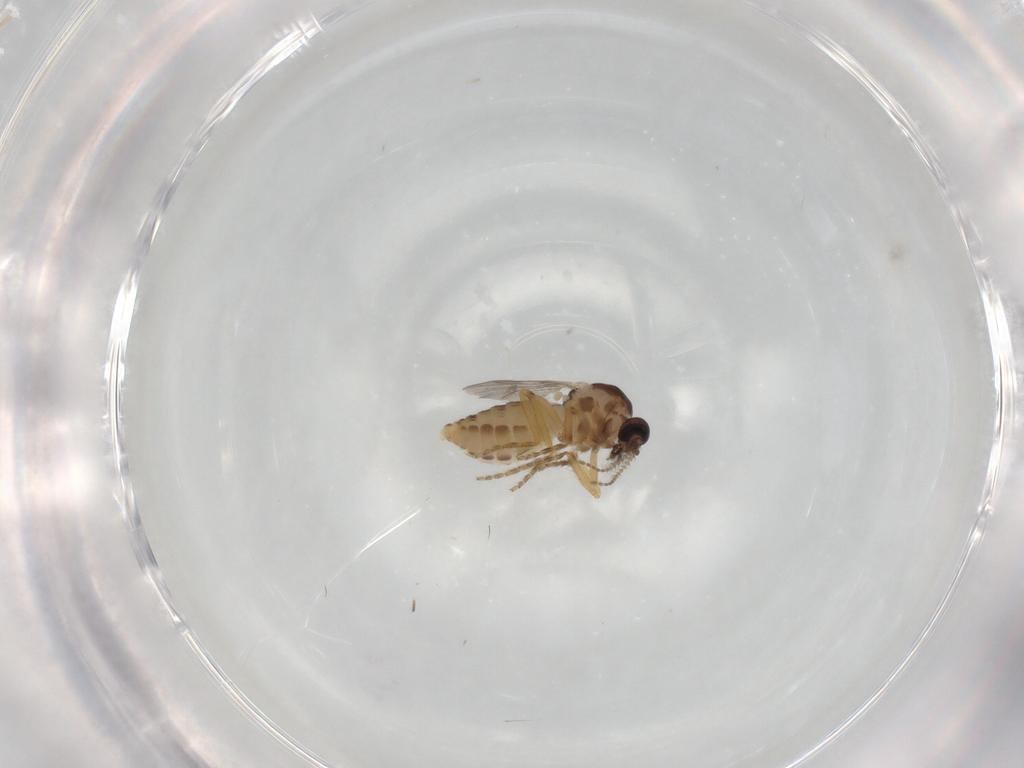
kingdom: Animalia
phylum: Arthropoda
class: Insecta
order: Diptera
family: Ceratopogonidae
